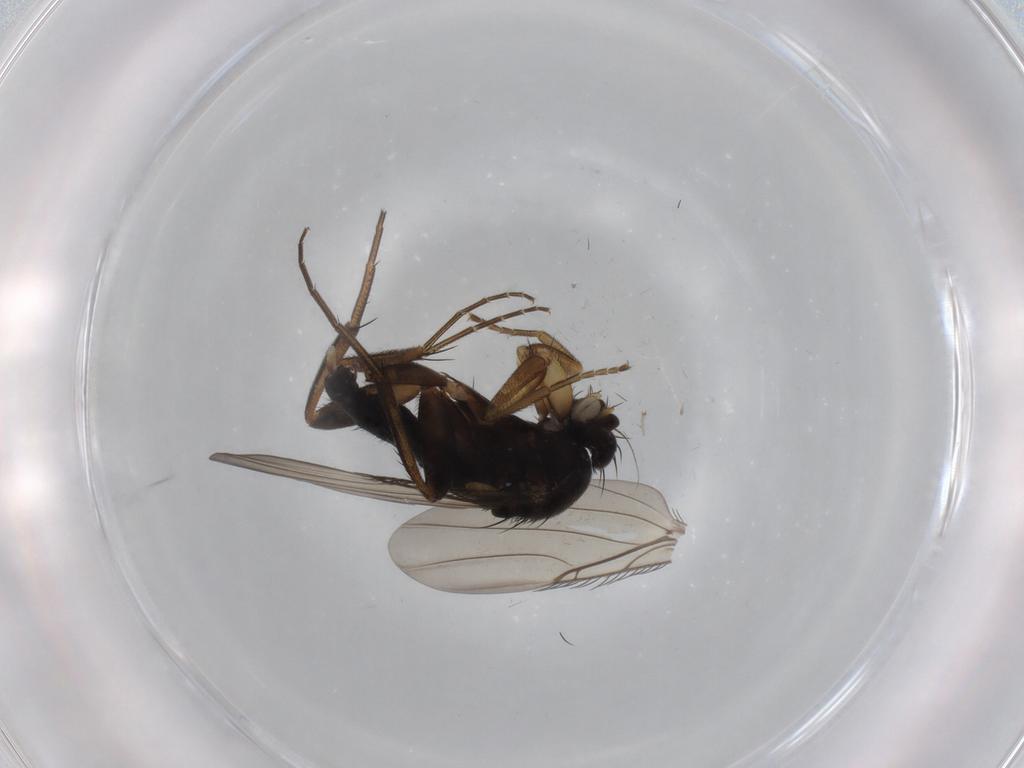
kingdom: Animalia
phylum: Arthropoda
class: Insecta
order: Diptera
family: Phoridae
